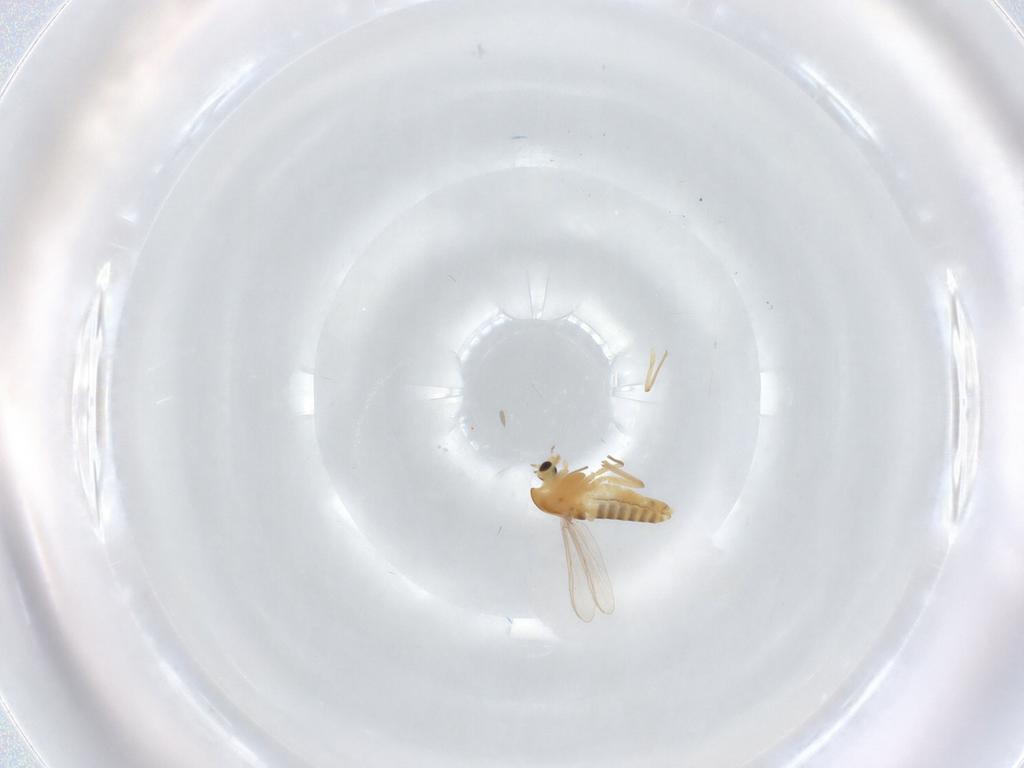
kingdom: Animalia
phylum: Arthropoda
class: Insecta
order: Diptera
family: Chironomidae
